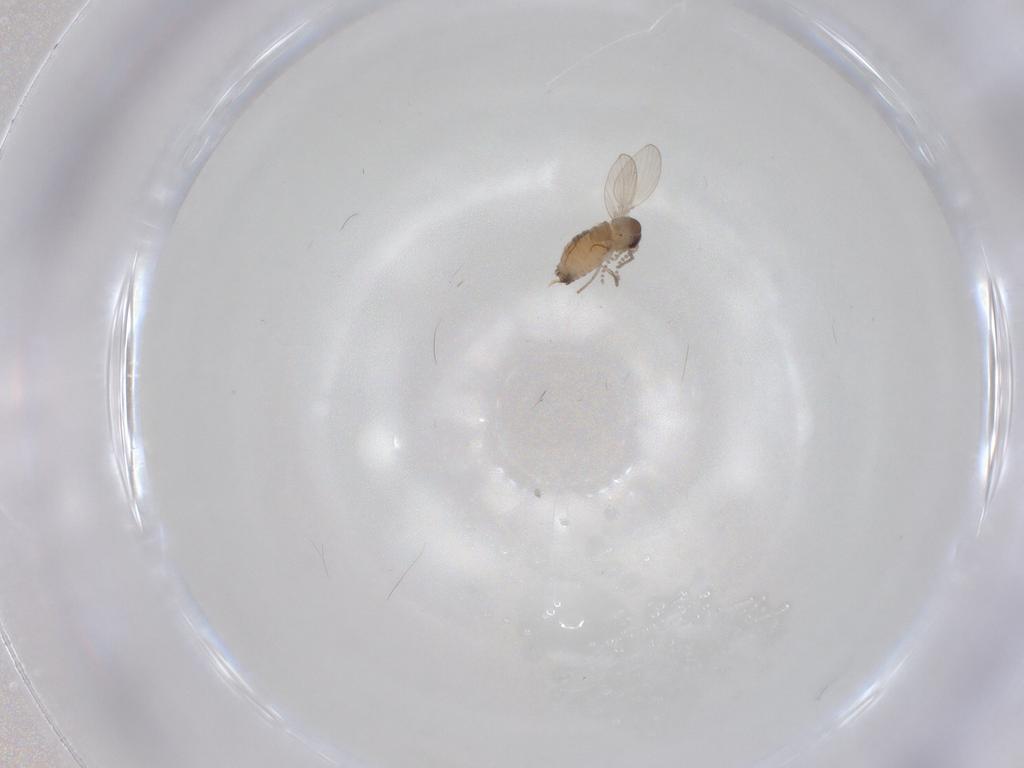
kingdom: Animalia
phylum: Arthropoda
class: Insecta
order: Diptera
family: Psychodidae
